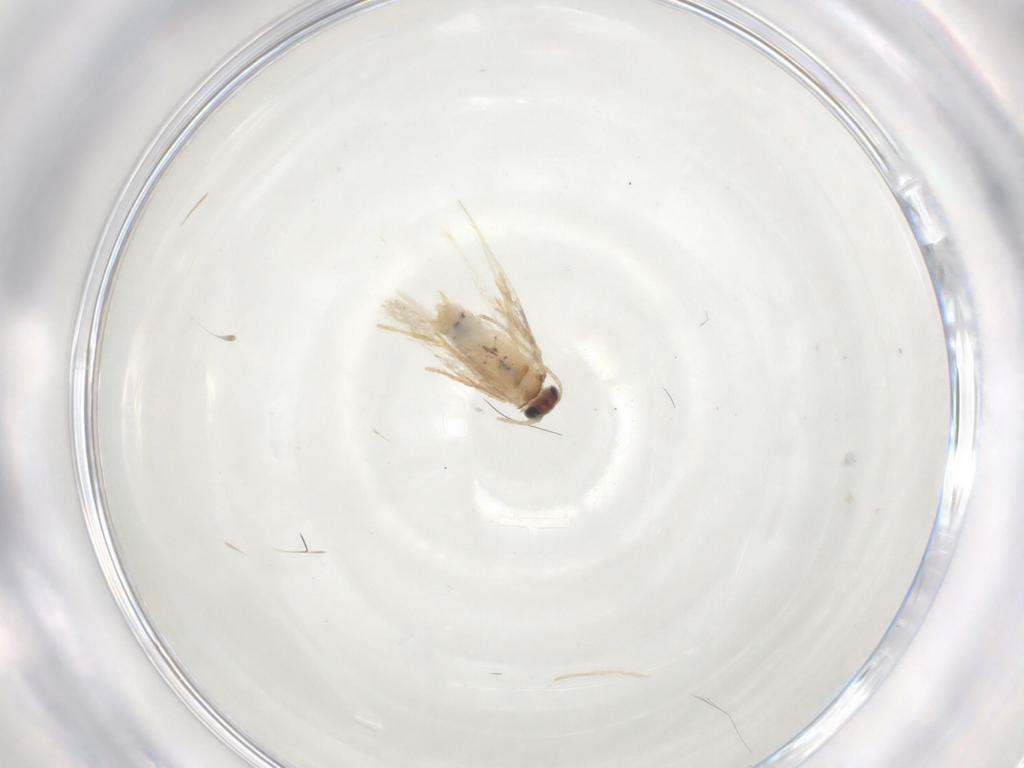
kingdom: Animalia
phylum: Arthropoda
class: Insecta
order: Lepidoptera
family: Nepticulidae
